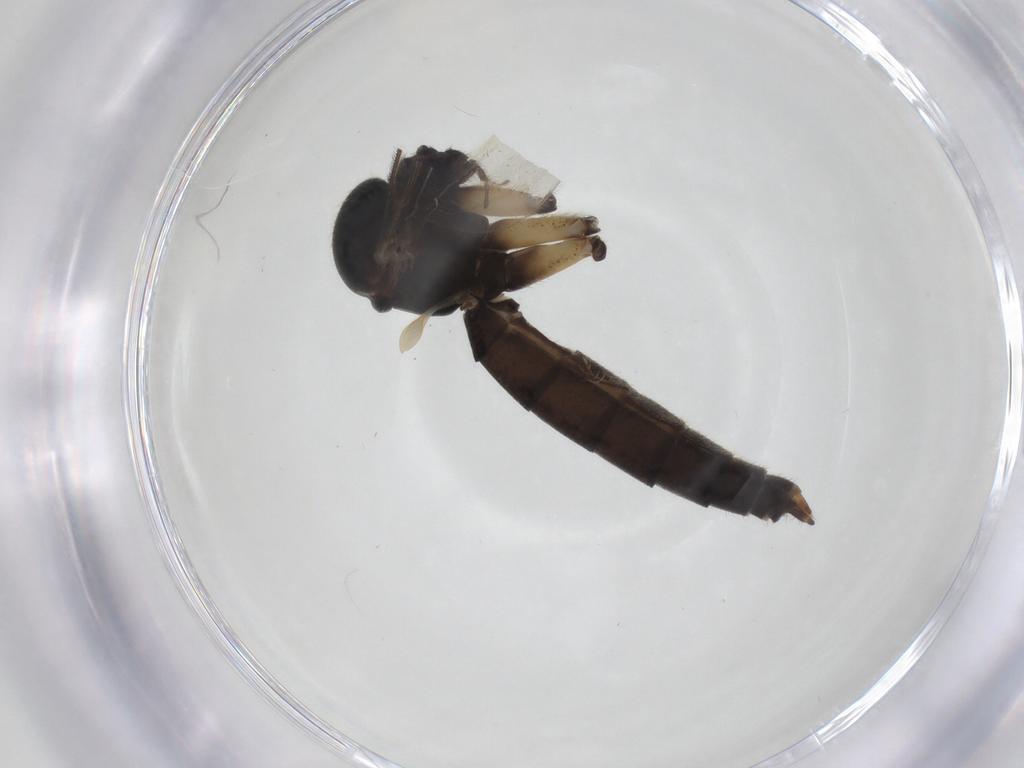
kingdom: Animalia
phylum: Arthropoda
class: Insecta
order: Diptera
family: Mycetophilidae
